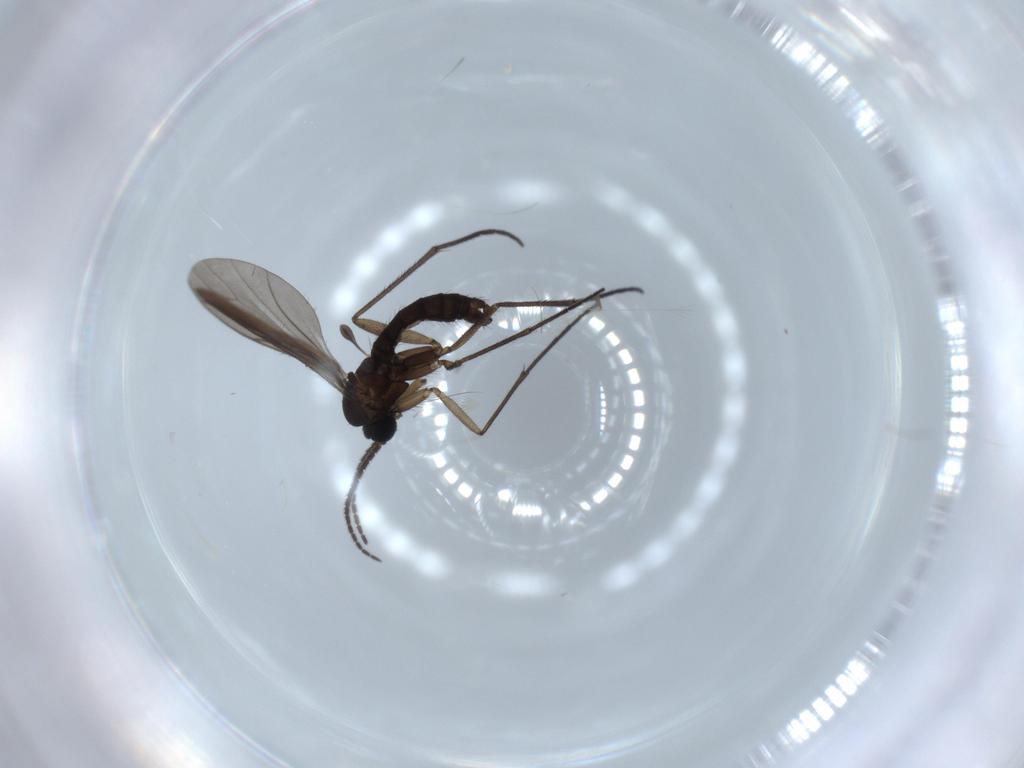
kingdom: Animalia
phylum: Arthropoda
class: Insecta
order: Diptera
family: Sciaridae
